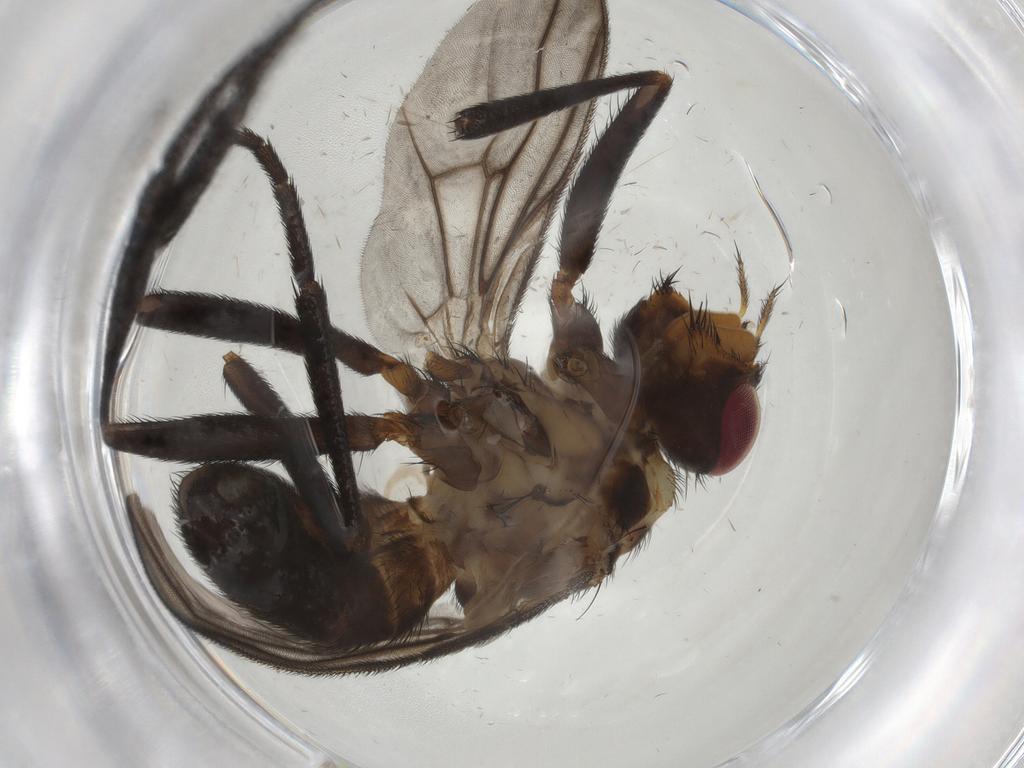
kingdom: Animalia
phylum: Arthropoda
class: Insecta
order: Diptera
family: Calliphoridae
